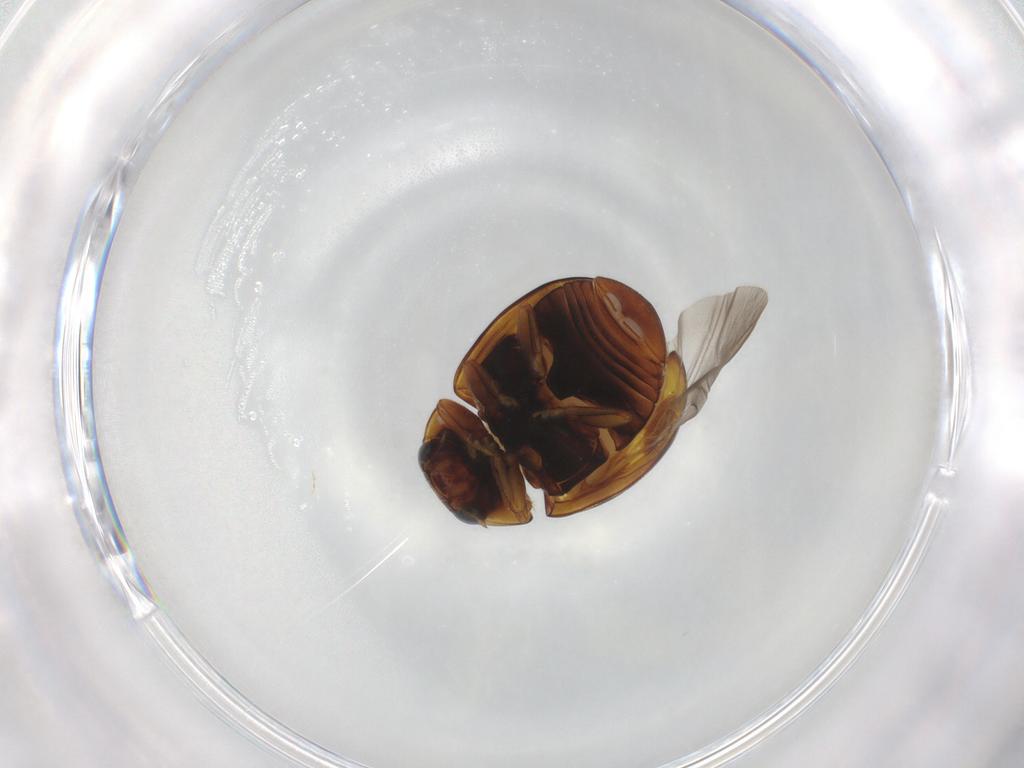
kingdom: Animalia
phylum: Arthropoda
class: Insecta
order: Coleoptera
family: Coccinellidae
